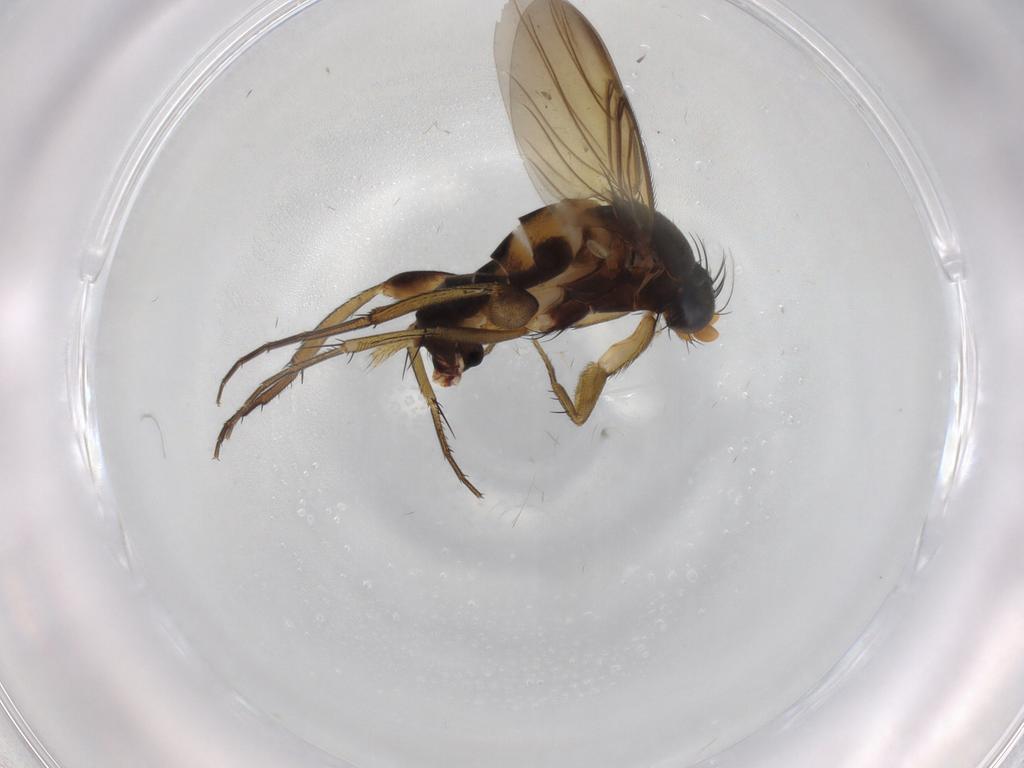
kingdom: Animalia
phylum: Arthropoda
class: Insecta
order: Diptera
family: Phoridae
